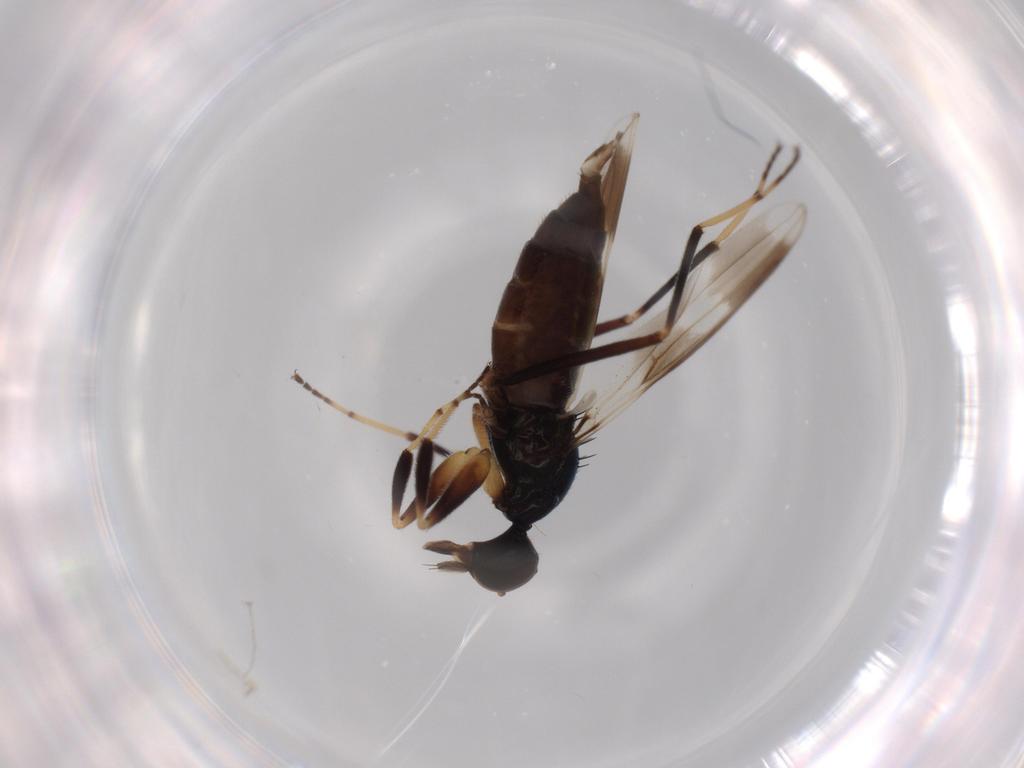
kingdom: Animalia
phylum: Arthropoda
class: Insecta
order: Diptera
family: Hybotidae
